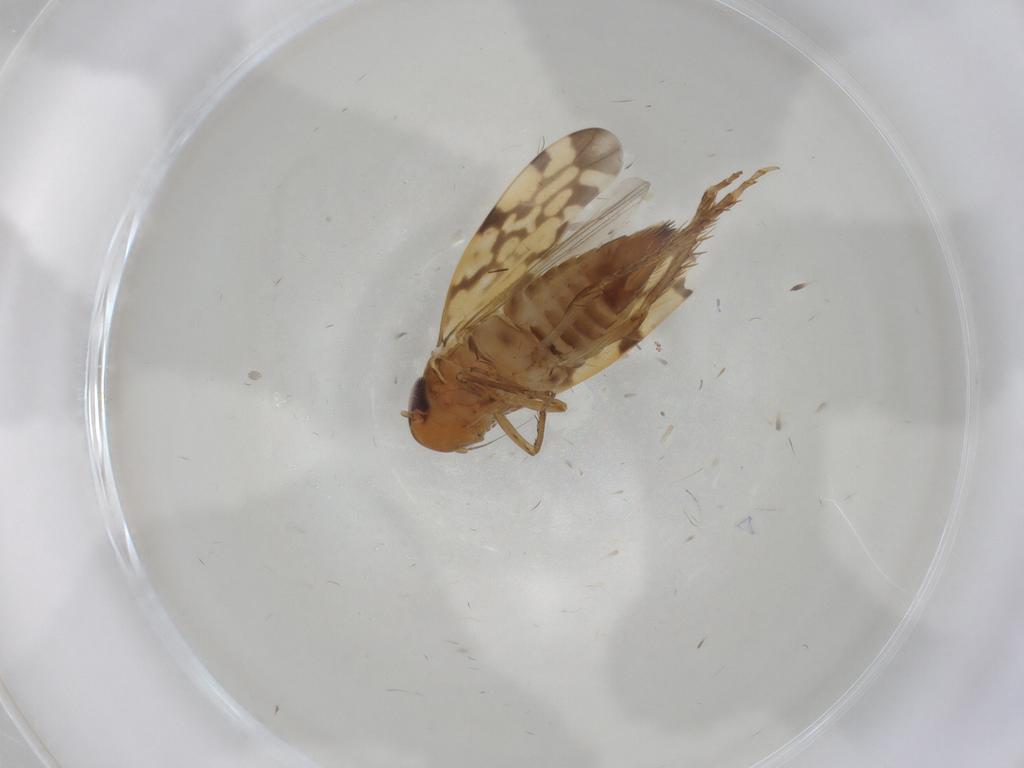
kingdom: Animalia
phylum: Arthropoda
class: Insecta
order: Hemiptera
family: Cicadellidae
